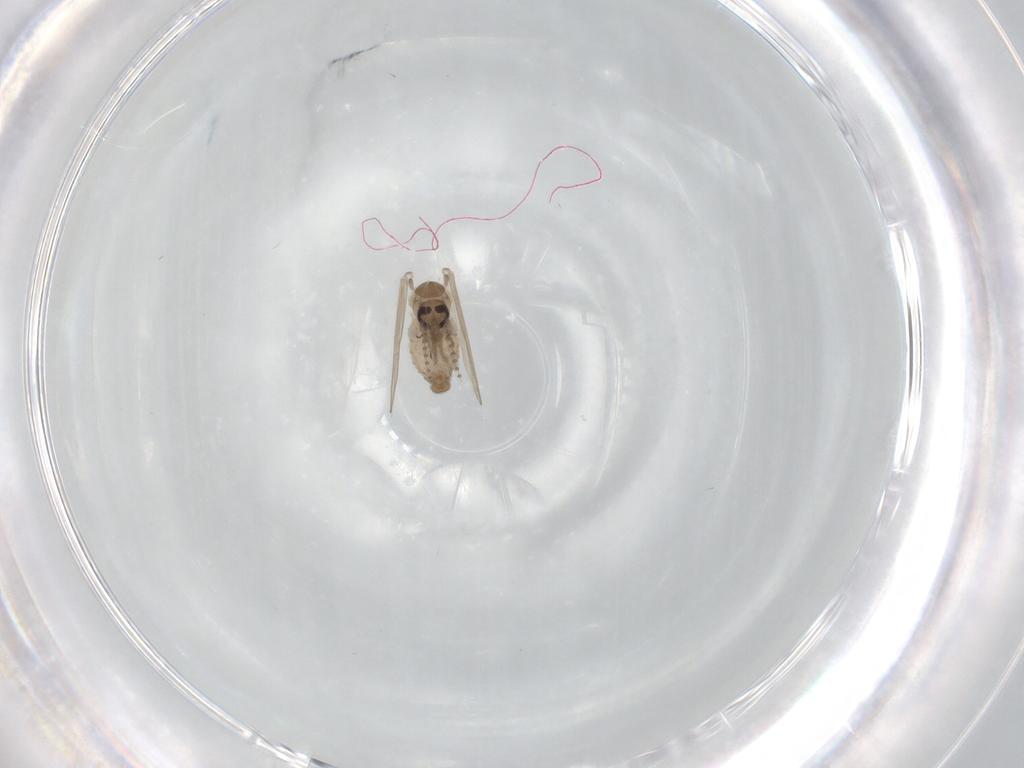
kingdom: Animalia
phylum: Arthropoda
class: Insecta
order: Diptera
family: Psychodidae
